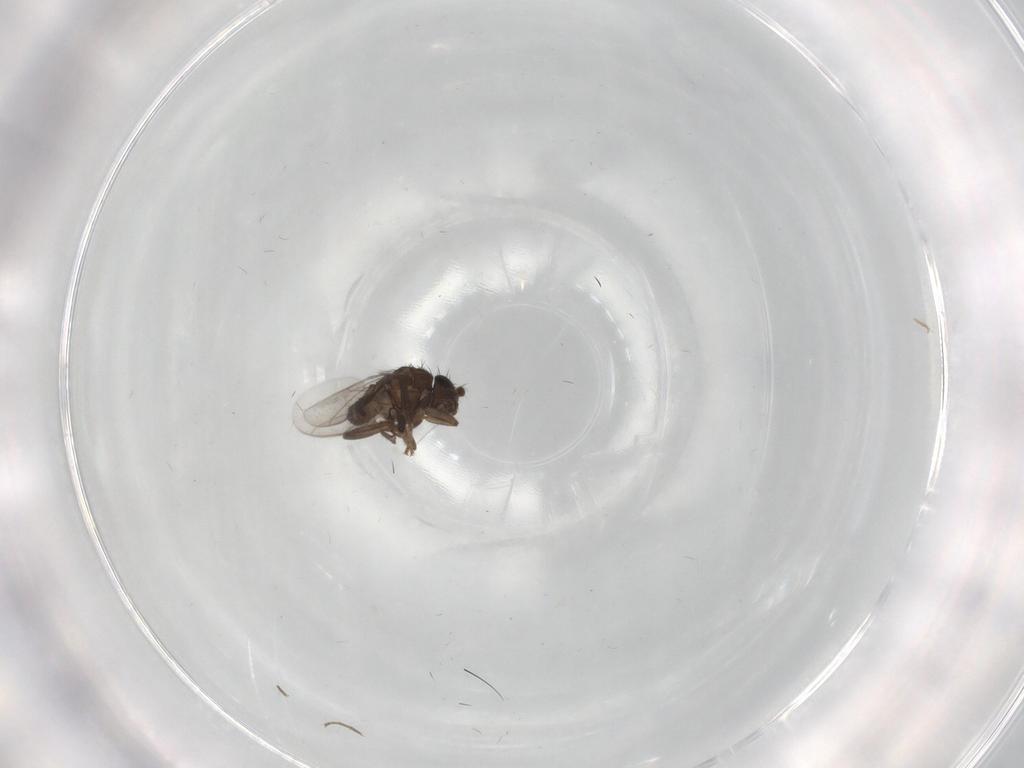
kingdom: Animalia
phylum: Arthropoda
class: Insecta
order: Diptera
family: Sphaeroceridae
